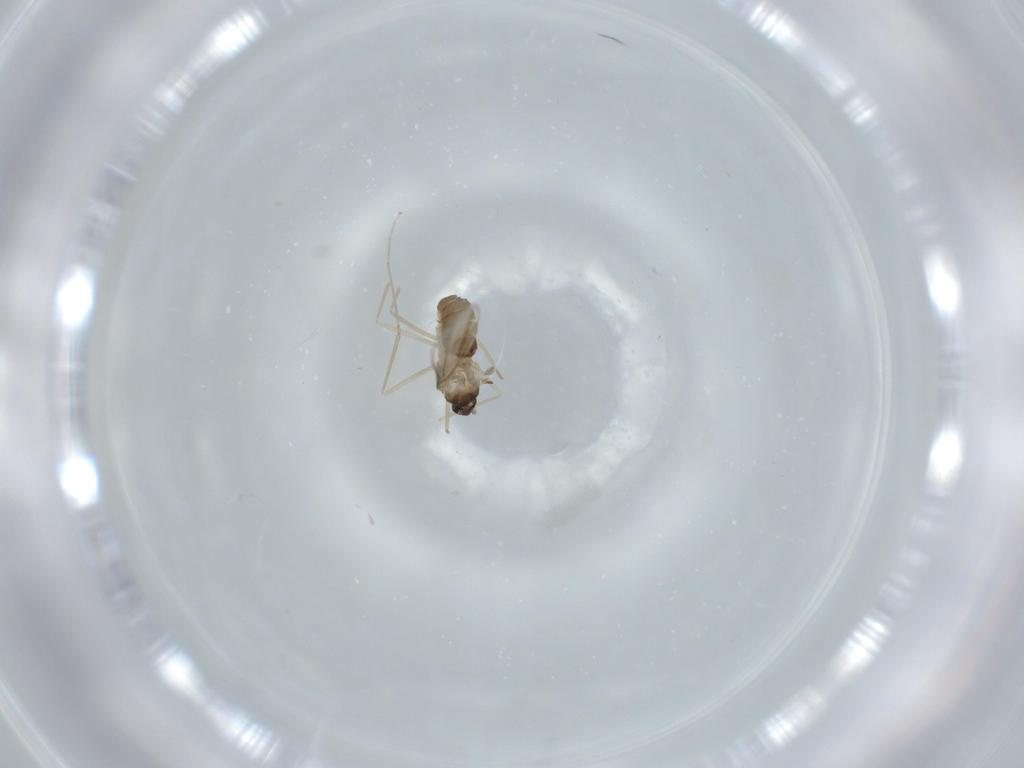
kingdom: Animalia
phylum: Arthropoda
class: Insecta
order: Diptera
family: Cecidomyiidae
